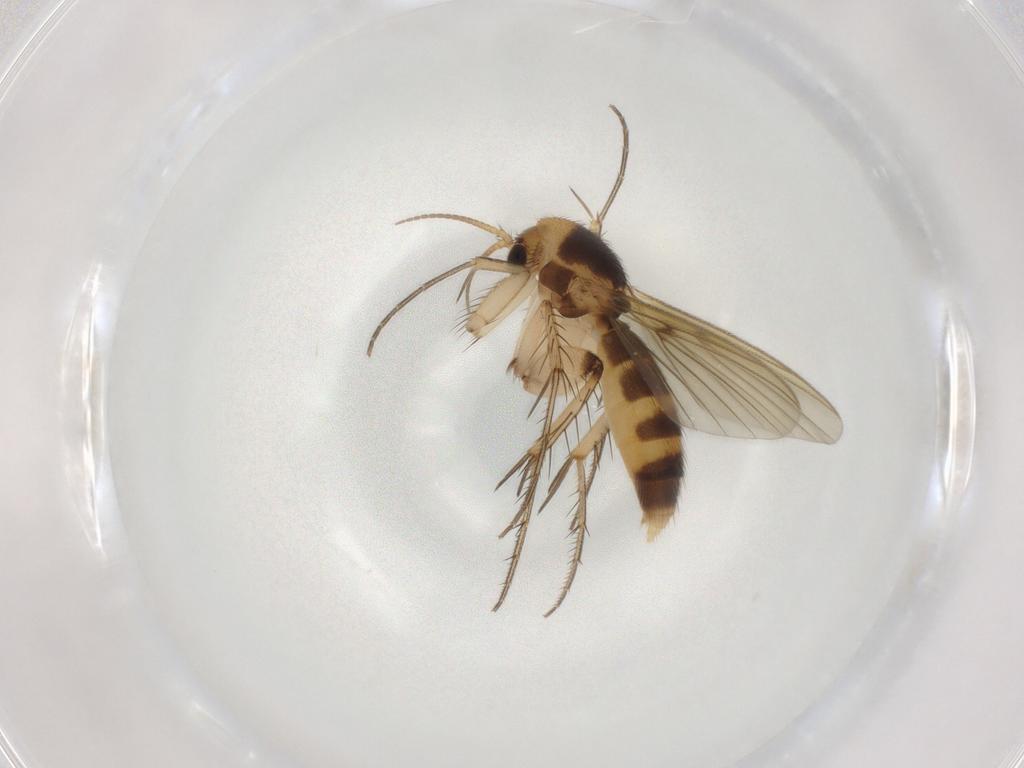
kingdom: Animalia
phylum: Arthropoda
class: Insecta
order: Diptera
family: Mycetophilidae
